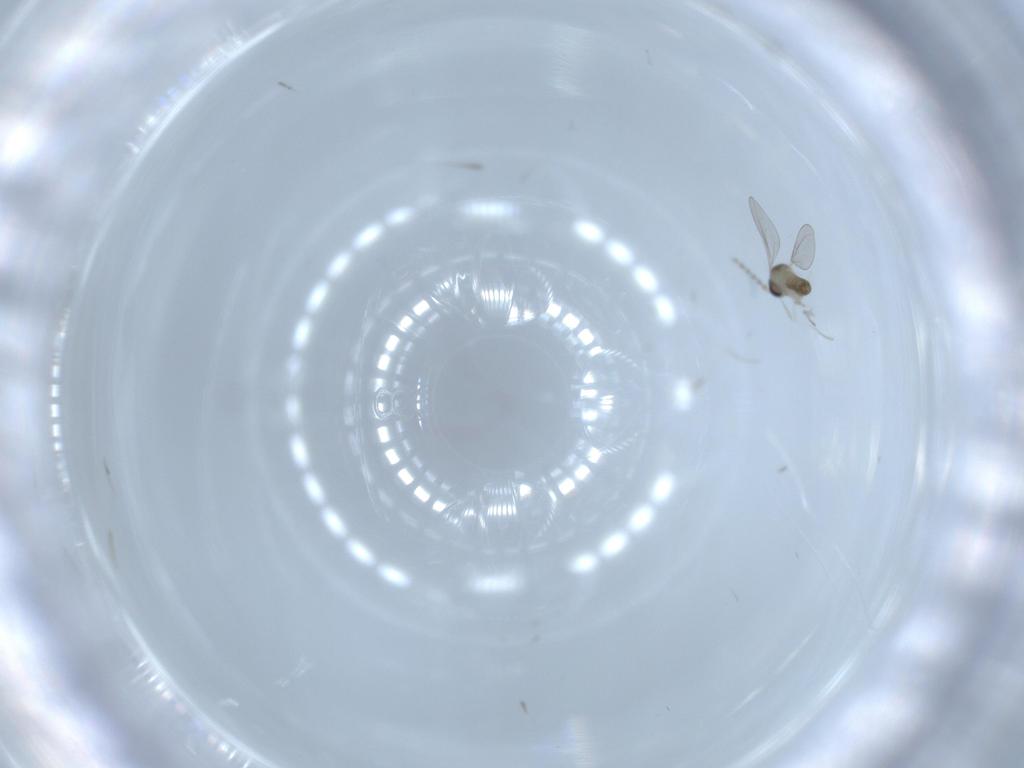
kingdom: Animalia
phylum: Arthropoda
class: Insecta
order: Diptera
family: Cecidomyiidae
